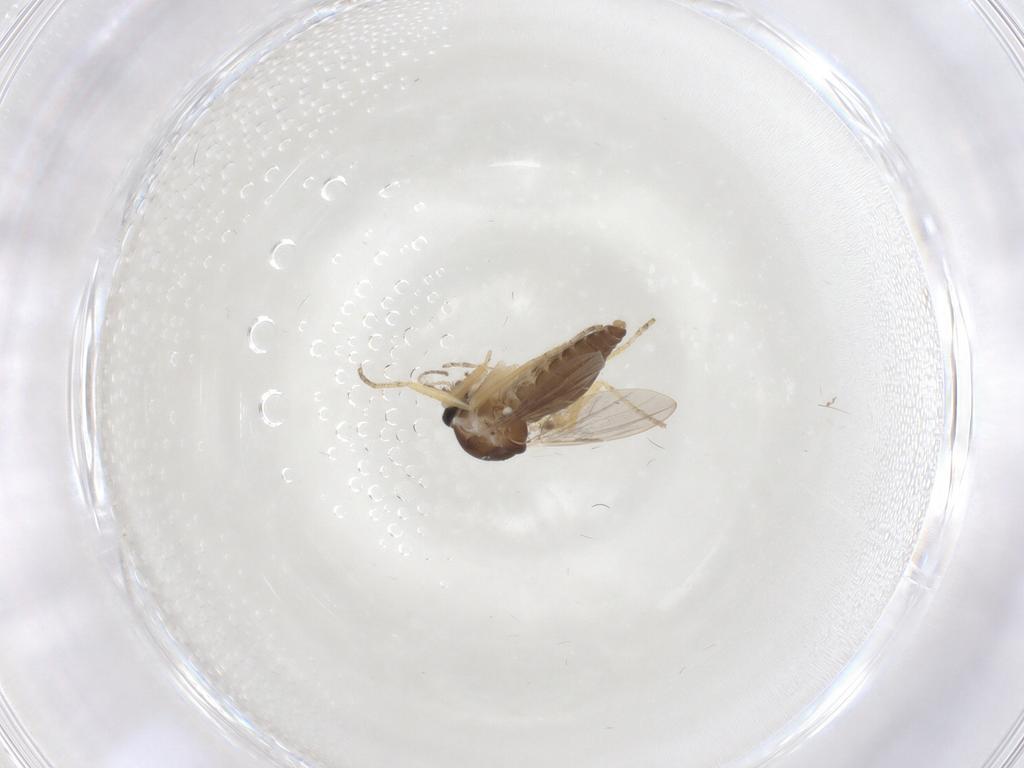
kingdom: Animalia
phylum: Arthropoda
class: Insecta
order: Diptera
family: Ceratopogonidae
